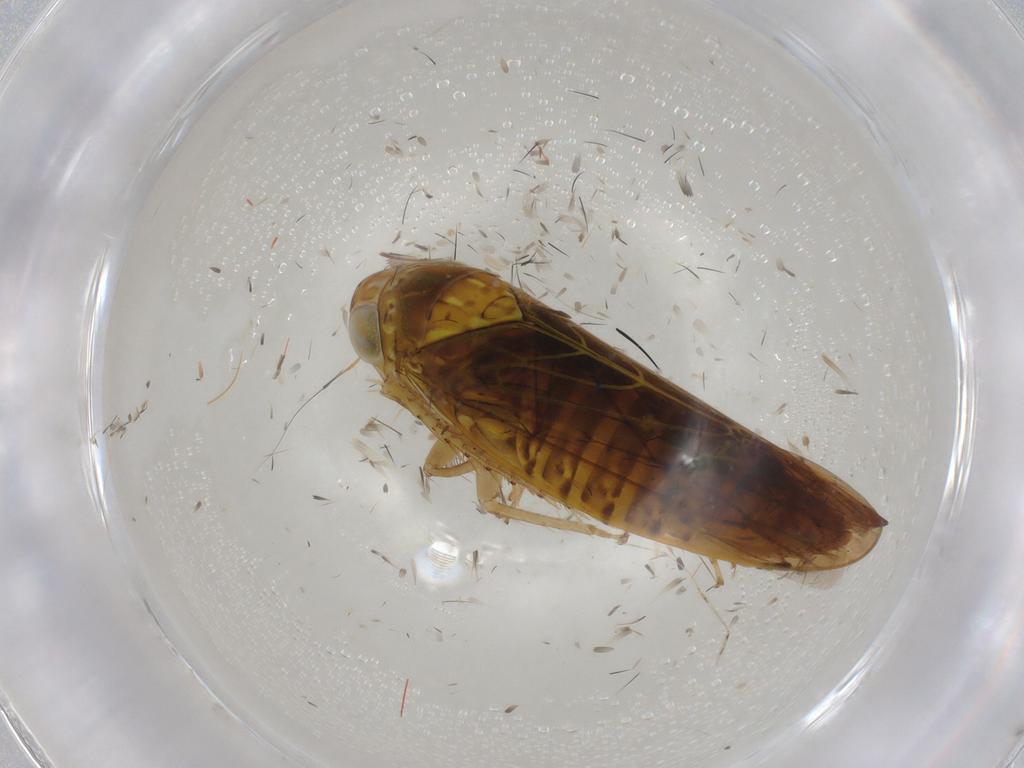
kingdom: Animalia
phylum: Arthropoda
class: Insecta
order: Hemiptera
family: Cicadellidae
